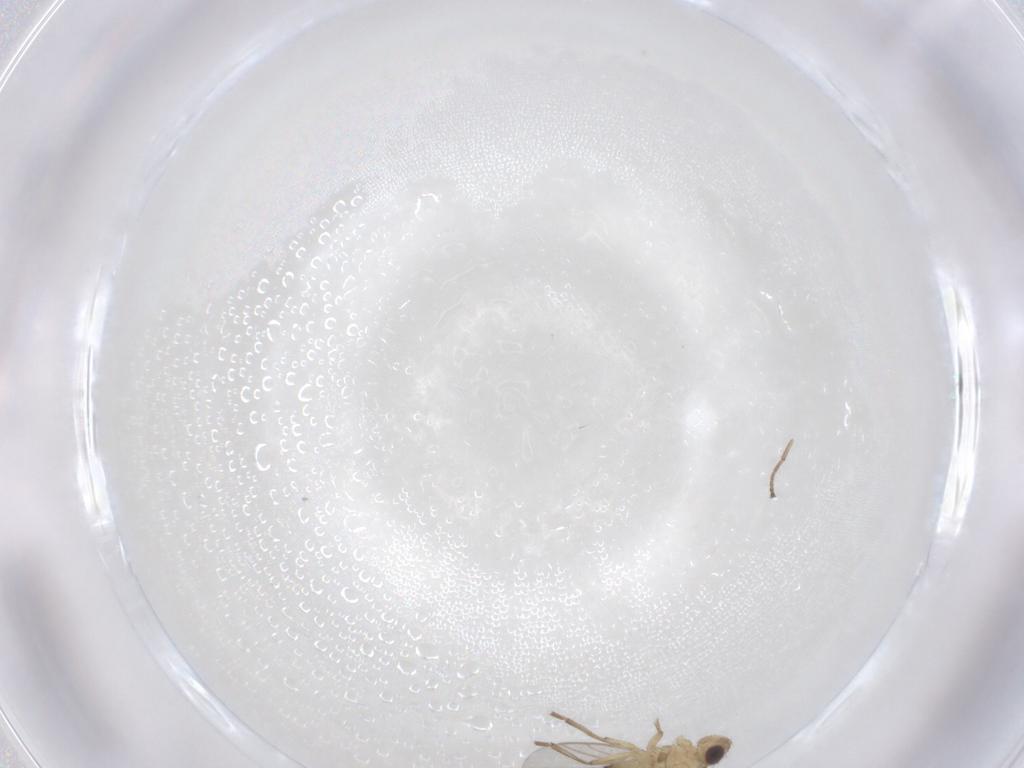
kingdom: Animalia
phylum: Arthropoda
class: Insecta
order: Diptera
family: Agromyzidae
